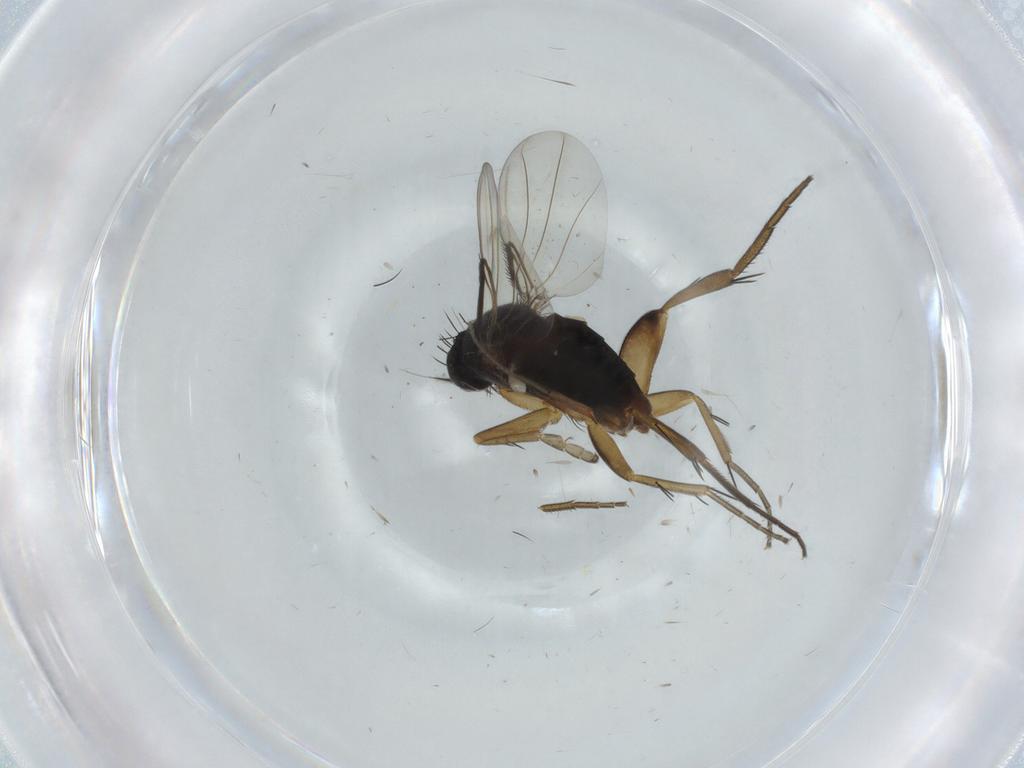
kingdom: Animalia
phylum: Arthropoda
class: Insecta
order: Diptera
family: Phoridae
